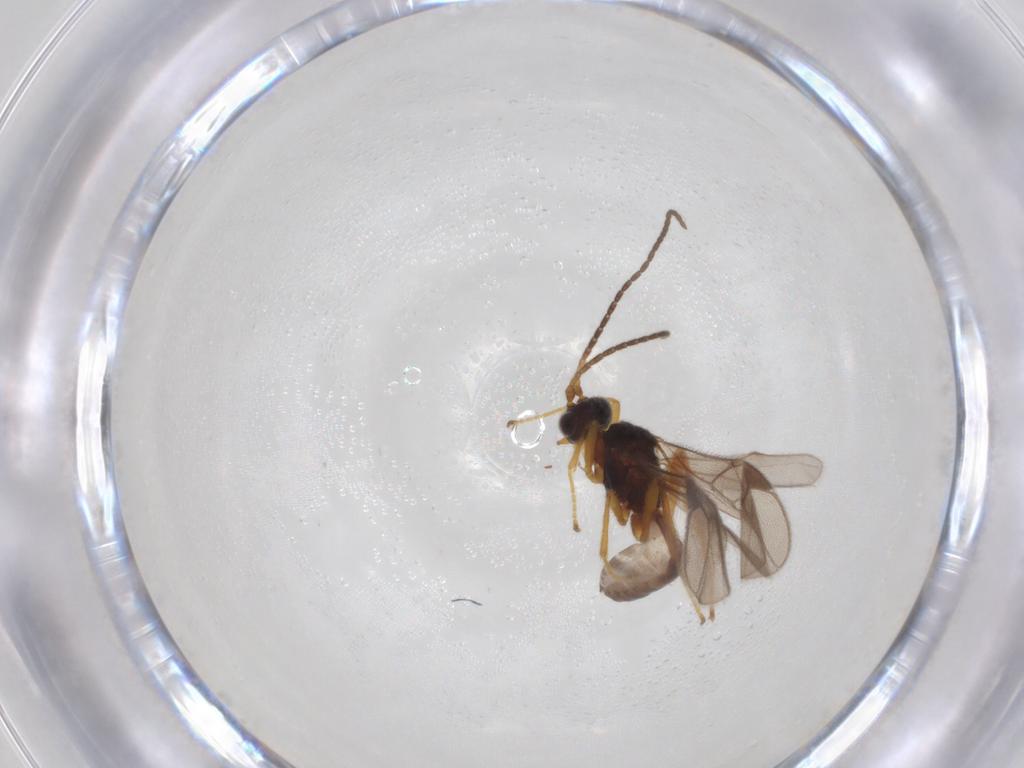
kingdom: Animalia
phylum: Arthropoda
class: Insecta
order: Hymenoptera
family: Braconidae
